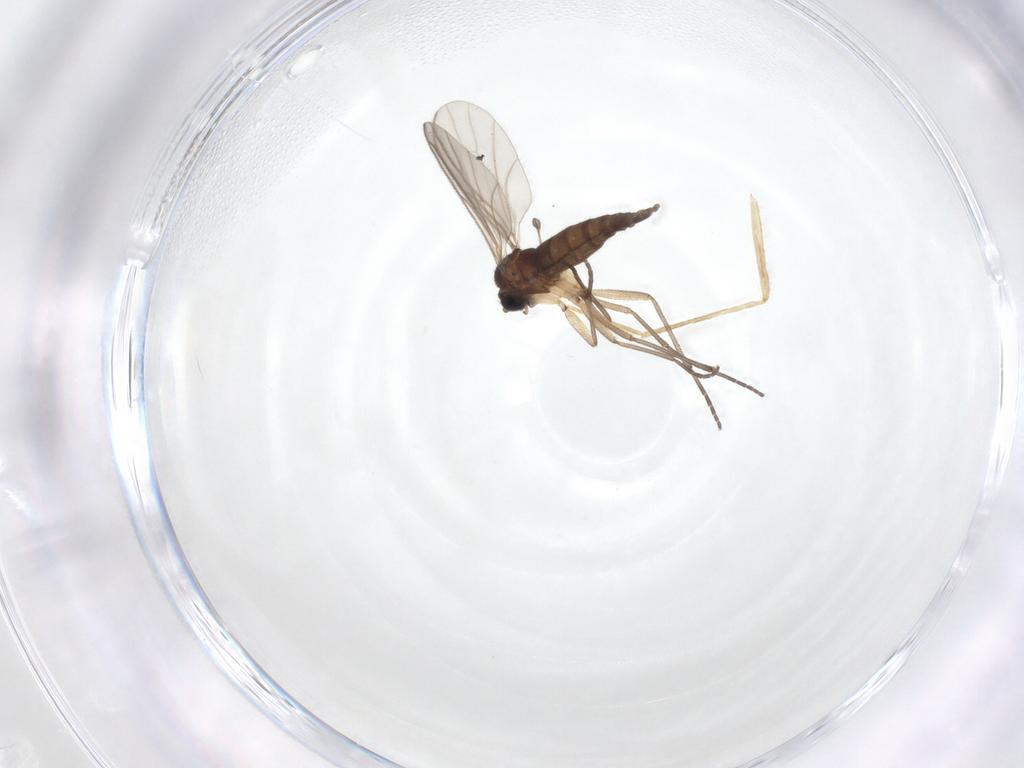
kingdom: Animalia
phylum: Arthropoda
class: Insecta
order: Diptera
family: Sciaridae
